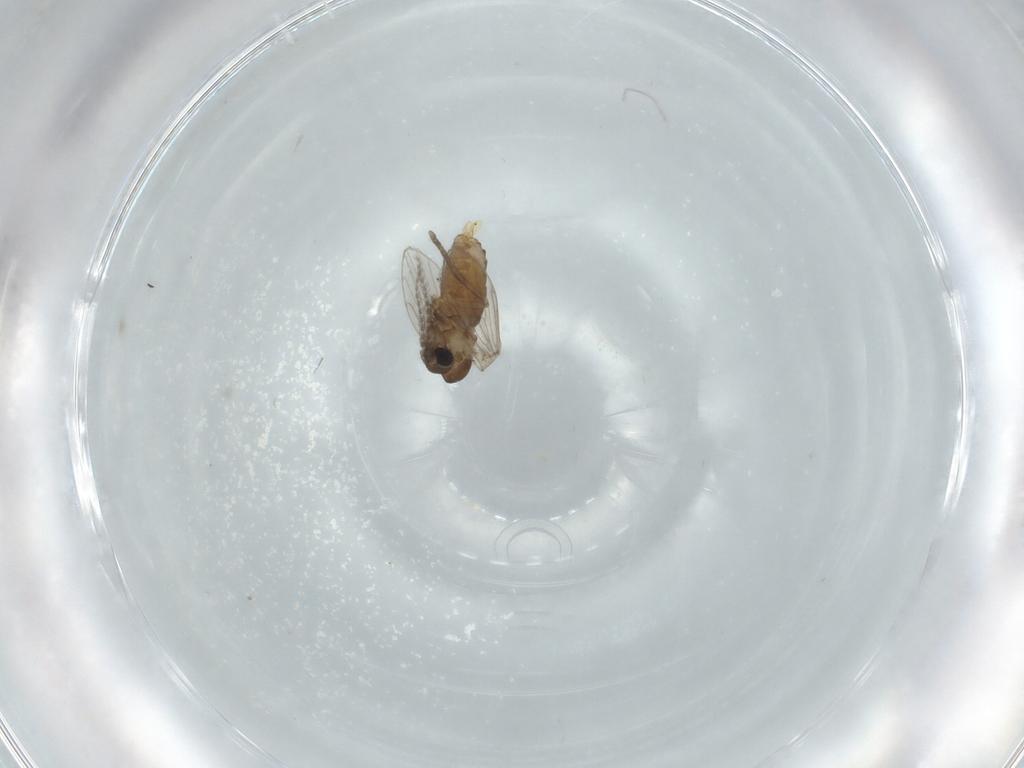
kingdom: Animalia
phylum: Arthropoda
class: Insecta
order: Diptera
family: Psychodidae
